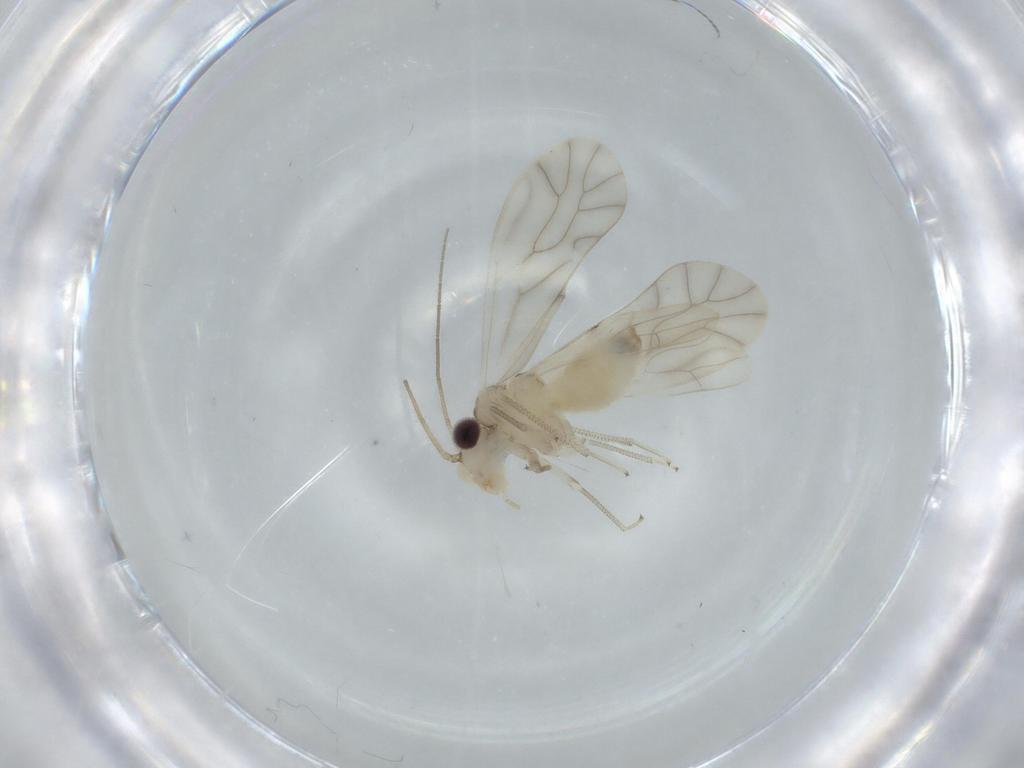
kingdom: Animalia
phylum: Arthropoda
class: Insecta
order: Psocodea
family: Caeciliusidae
